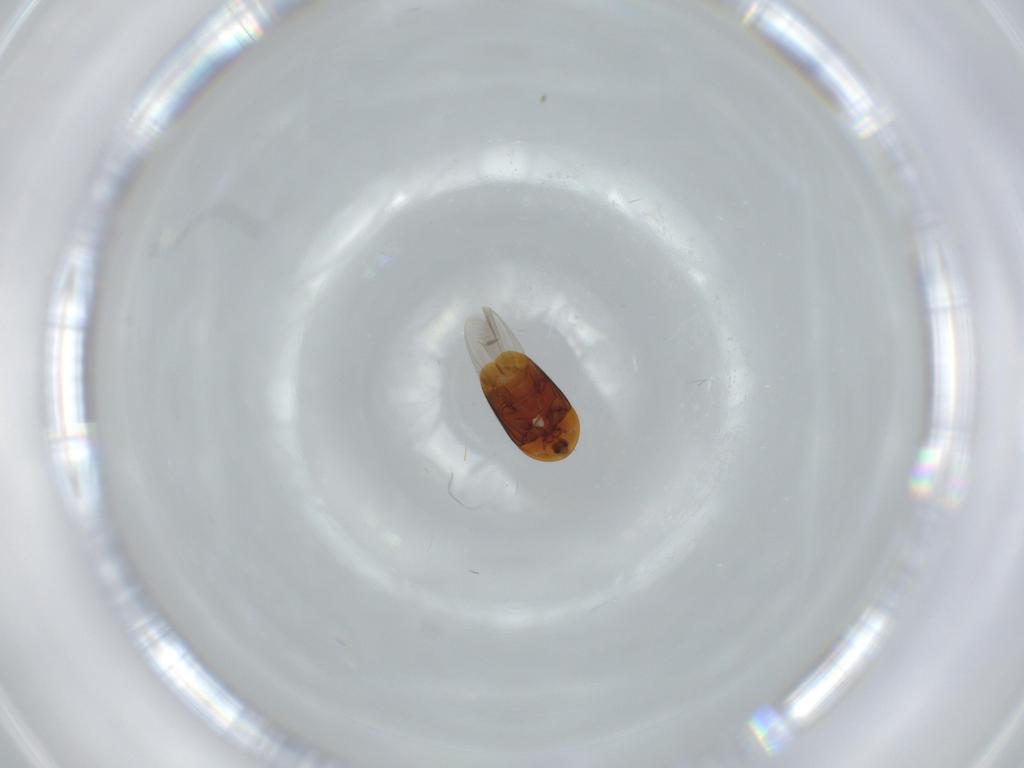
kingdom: Animalia
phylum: Arthropoda
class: Insecta
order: Coleoptera
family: Corylophidae
